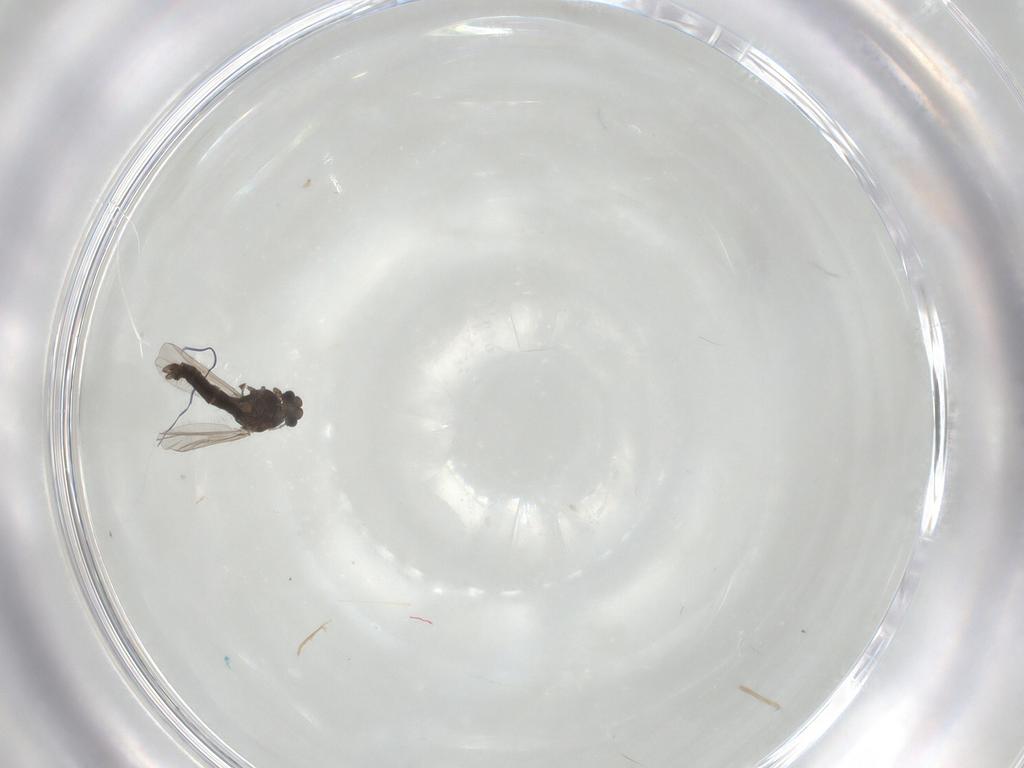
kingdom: Animalia
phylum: Arthropoda
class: Insecta
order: Diptera
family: Chironomidae
